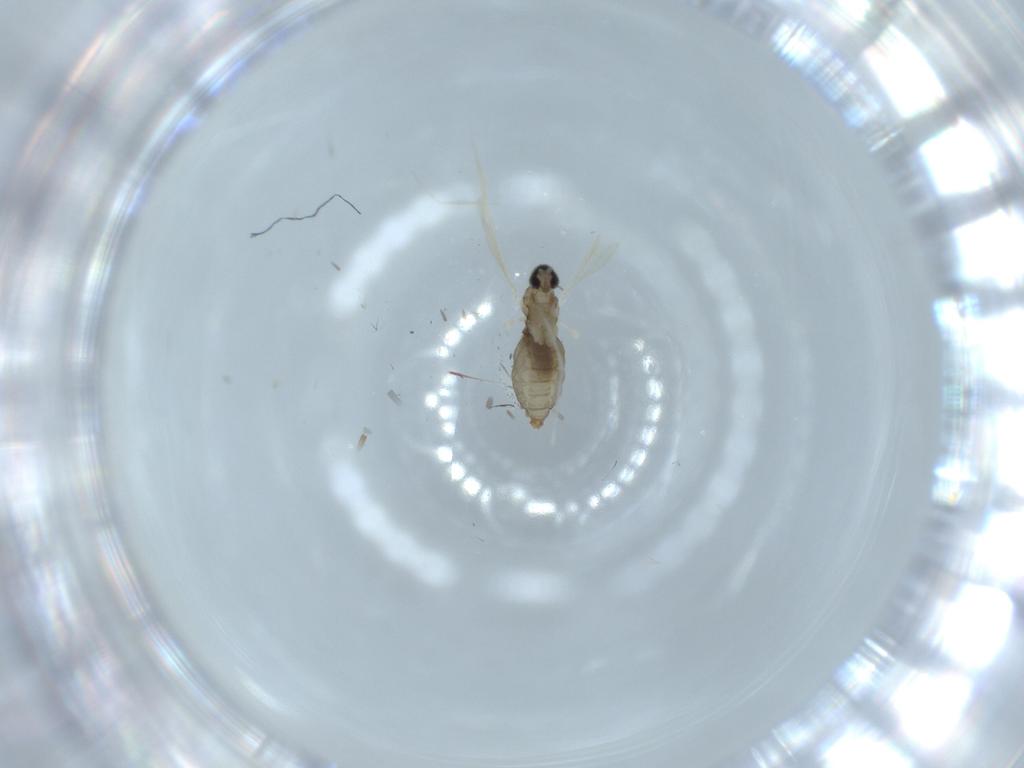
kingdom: Animalia
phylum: Arthropoda
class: Insecta
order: Diptera
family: Cecidomyiidae
